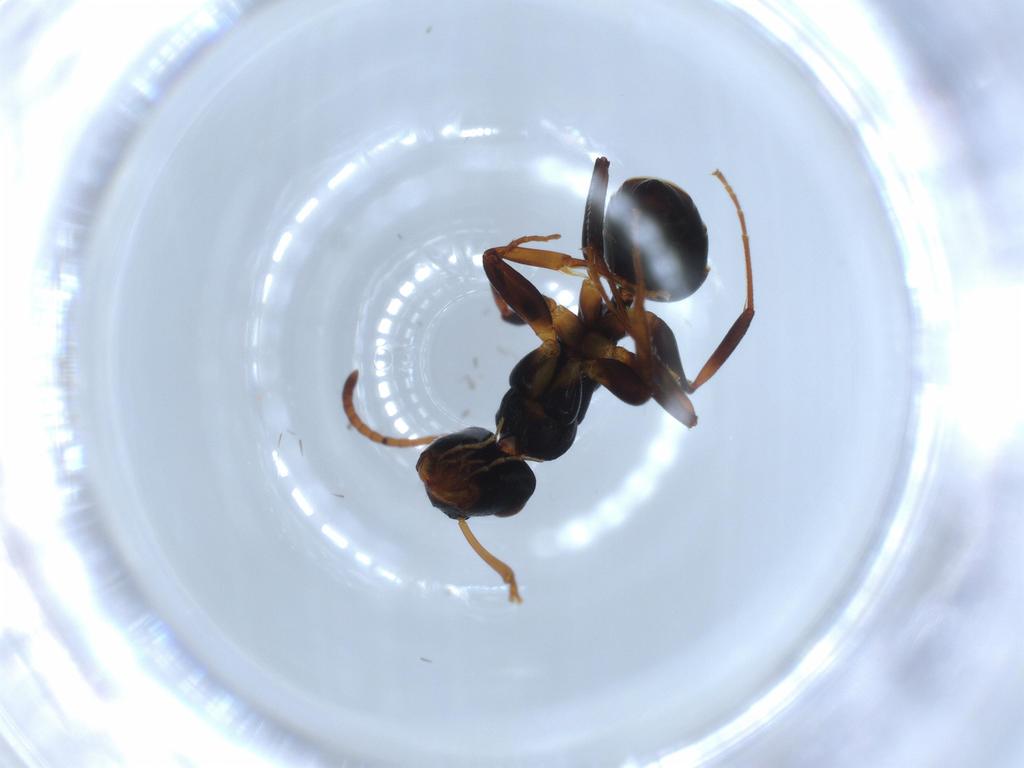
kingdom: Animalia
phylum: Arthropoda
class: Insecta
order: Hymenoptera
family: Formicidae
